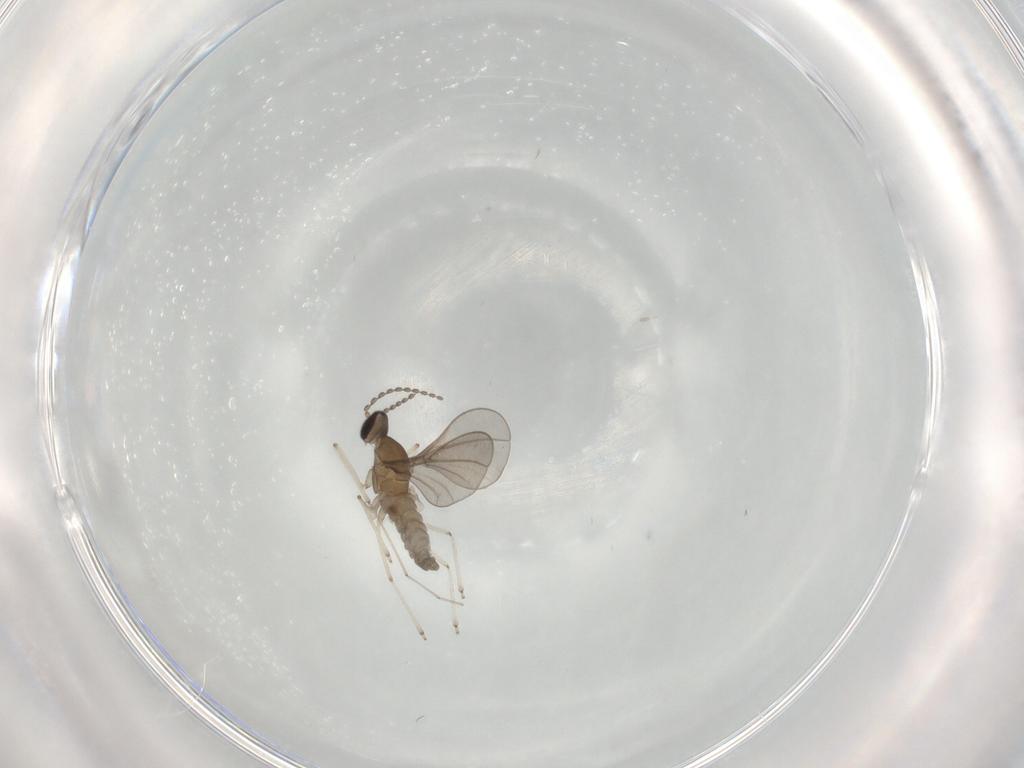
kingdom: Animalia
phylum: Arthropoda
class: Insecta
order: Diptera
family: Cecidomyiidae
